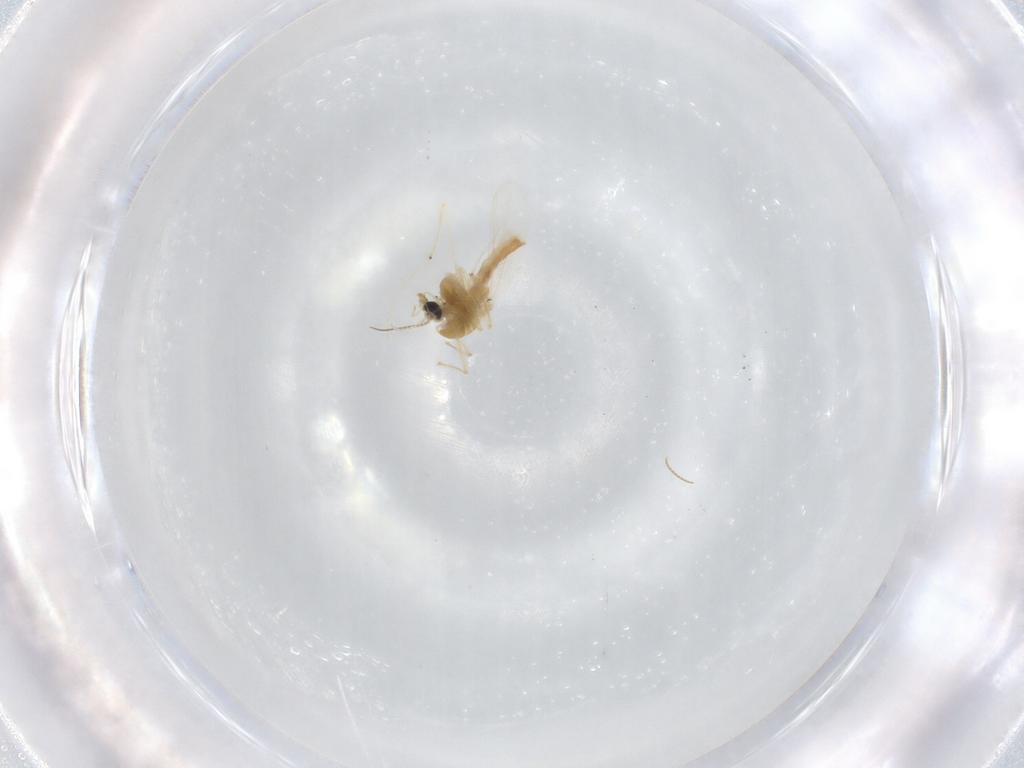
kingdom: Animalia
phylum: Arthropoda
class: Insecta
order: Diptera
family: Chironomidae
